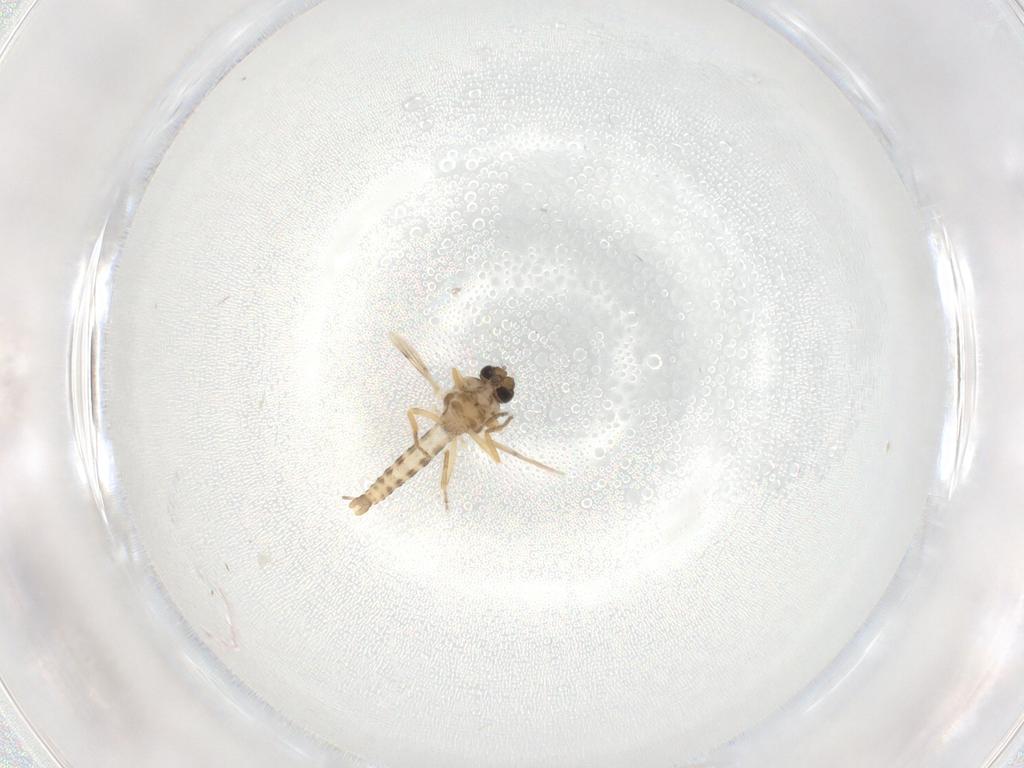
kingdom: Animalia
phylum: Arthropoda
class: Insecta
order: Diptera
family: Ceratopogonidae
